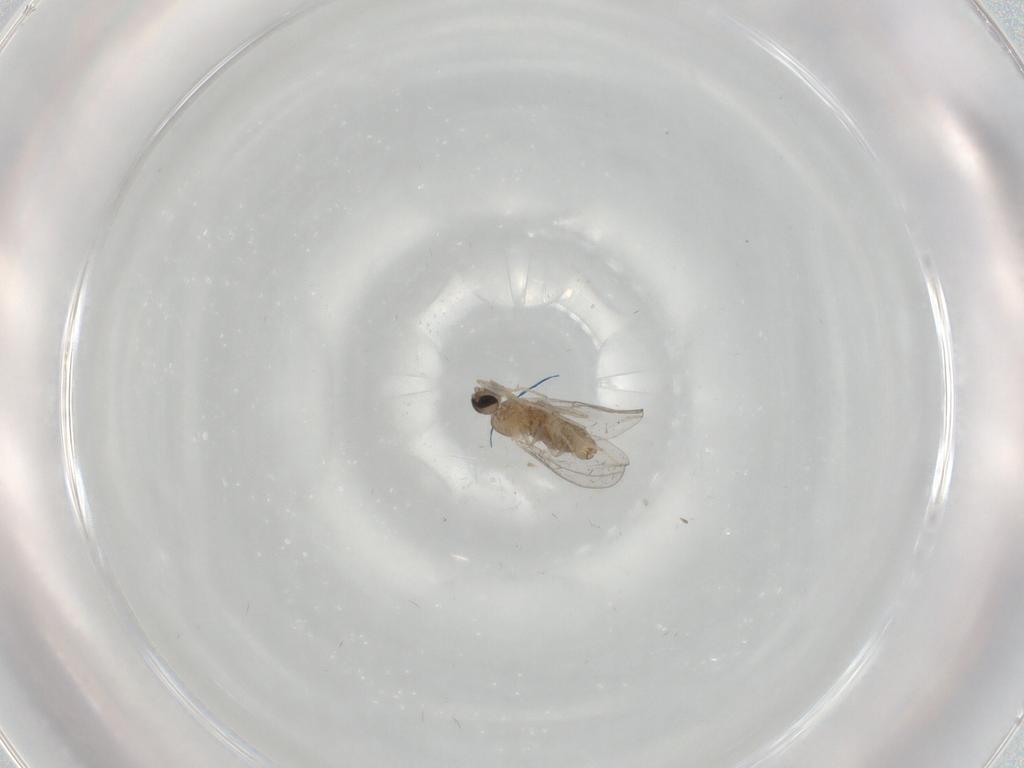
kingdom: Animalia
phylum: Arthropoda
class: Insecta
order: Diptera
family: Cecidomyiidae
